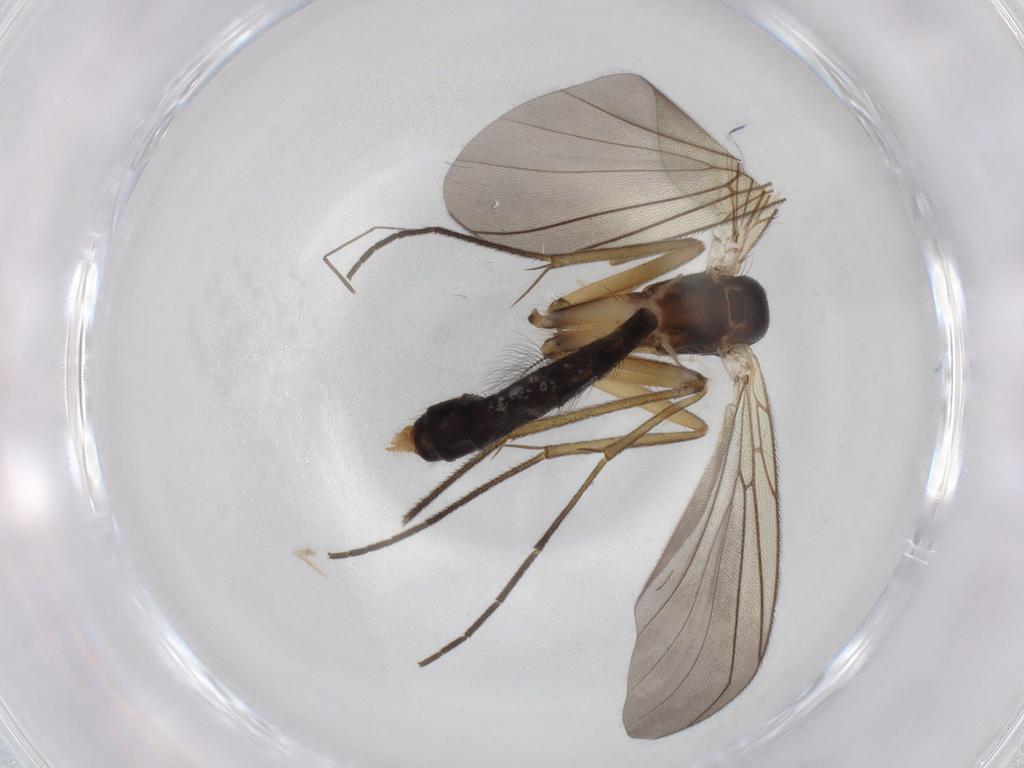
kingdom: Animalia
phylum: Arthropoda
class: Insecta
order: Diptera
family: Mycetophilidae
